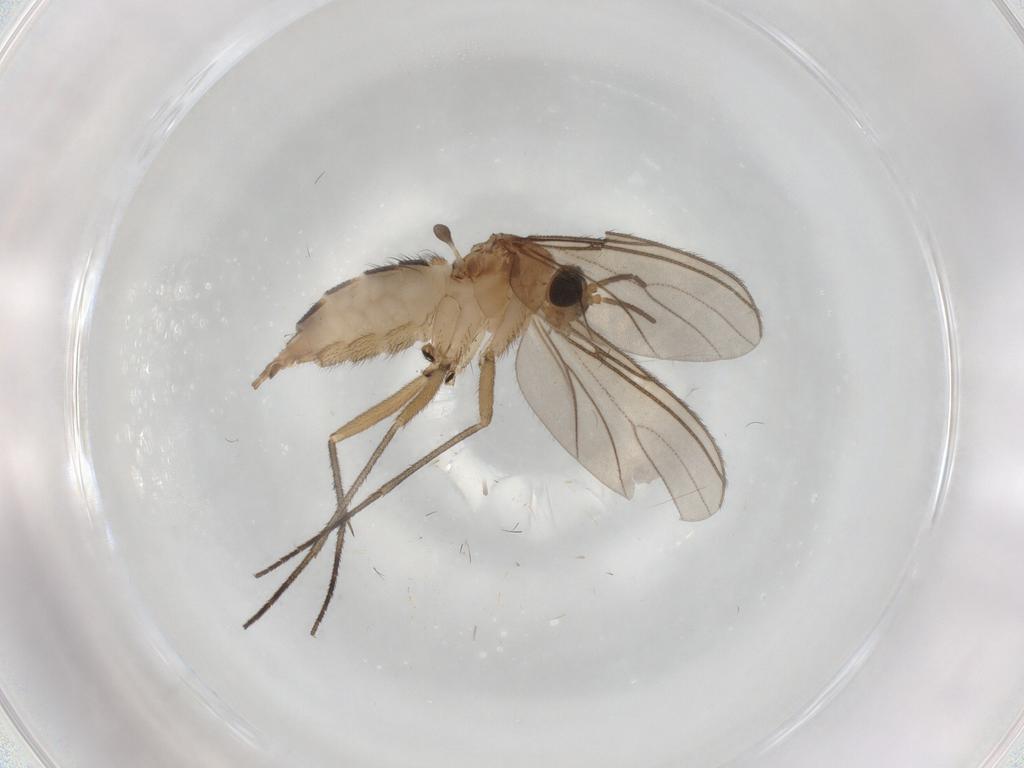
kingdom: Animalia
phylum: Arthropoda
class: Insecta
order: Diptera
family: Sciaridae
